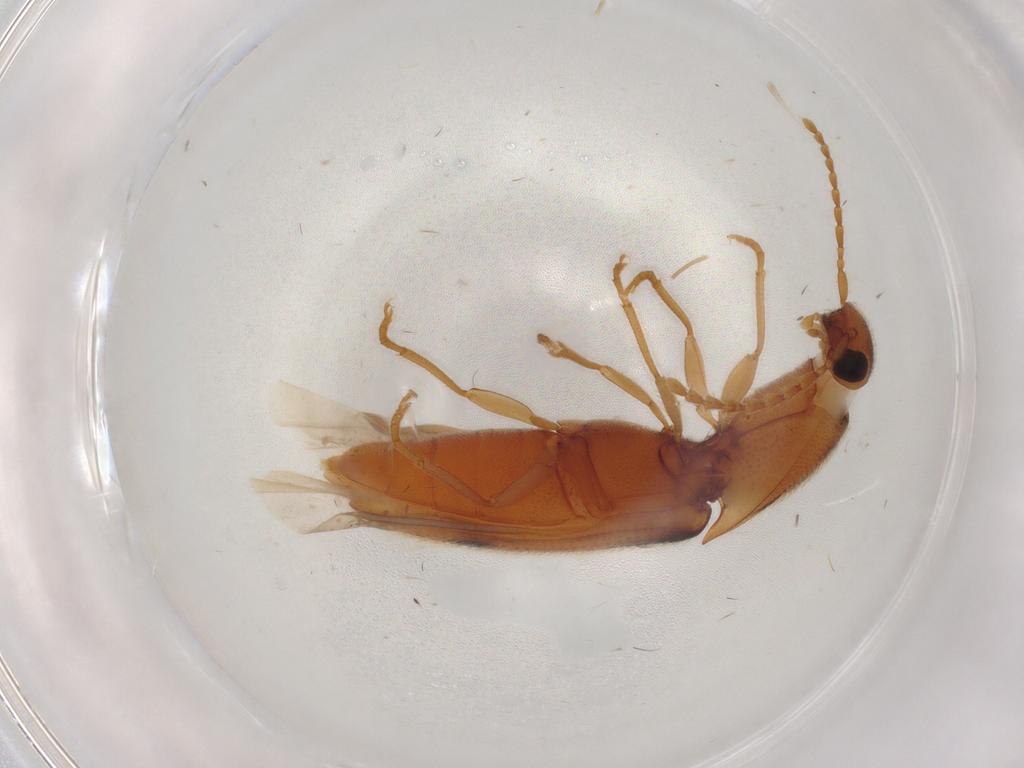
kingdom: Animalia
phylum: Arthropoda
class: Insecta
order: Coleoptera
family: Elateridae
